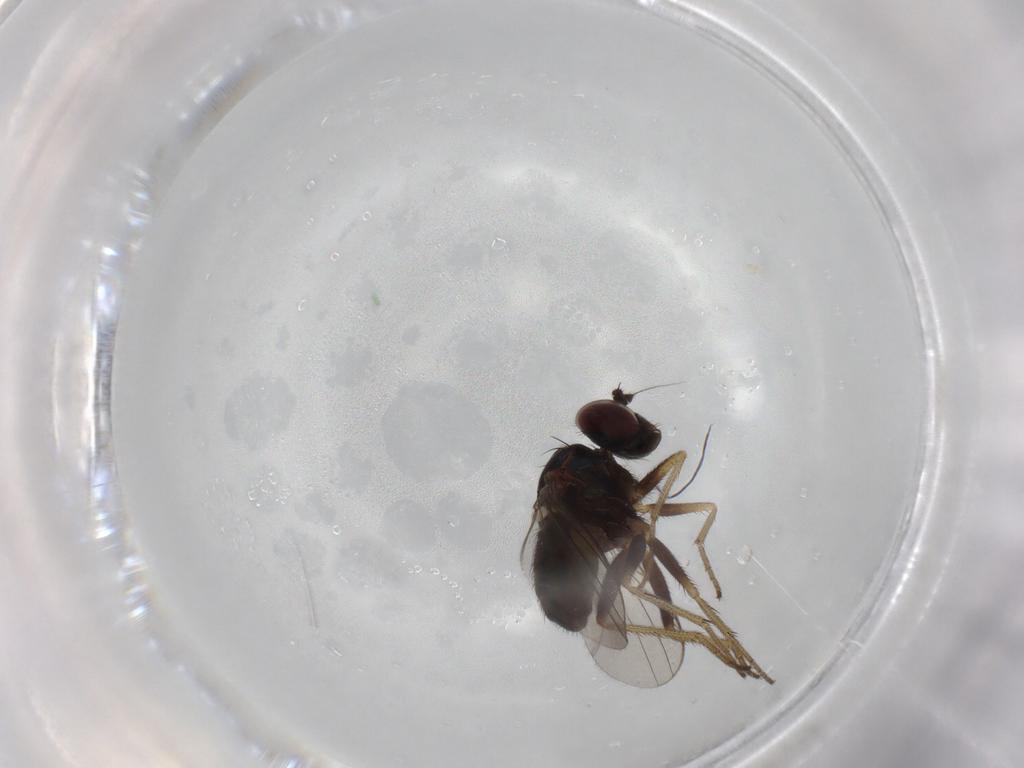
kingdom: Animalia
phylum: Arthropoda
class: Insecta
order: Diptera
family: Dolichopodidae
